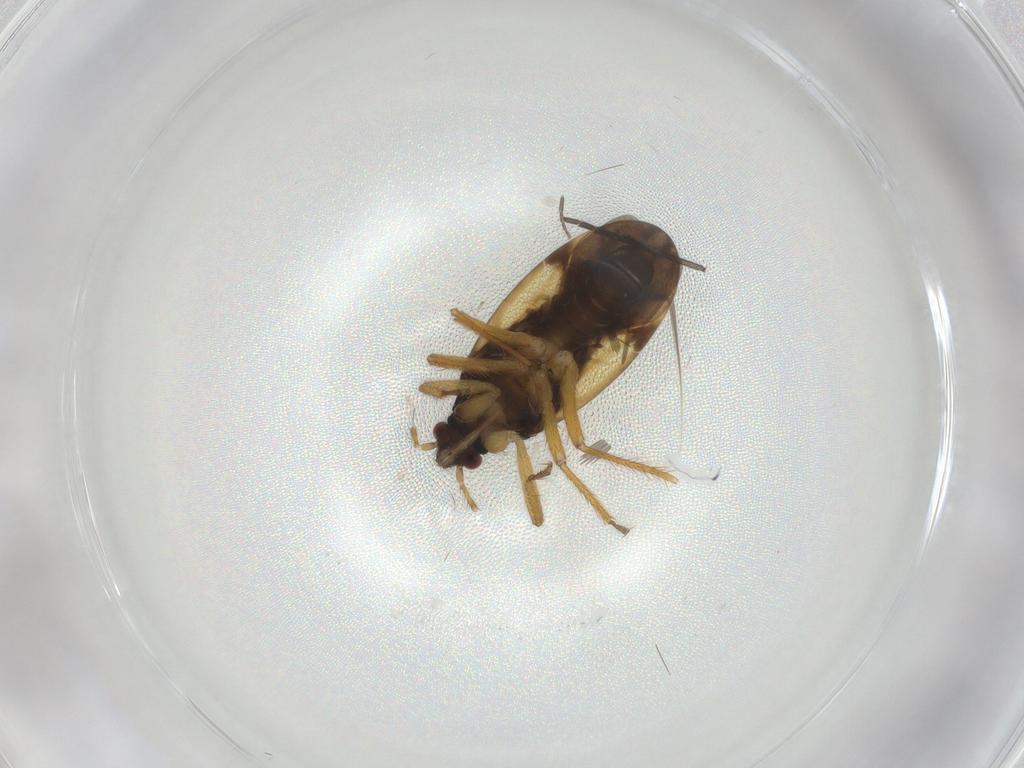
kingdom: Animalia
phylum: Arthropoda
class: Insecta
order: Hemiptera
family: Ceratocombidae
